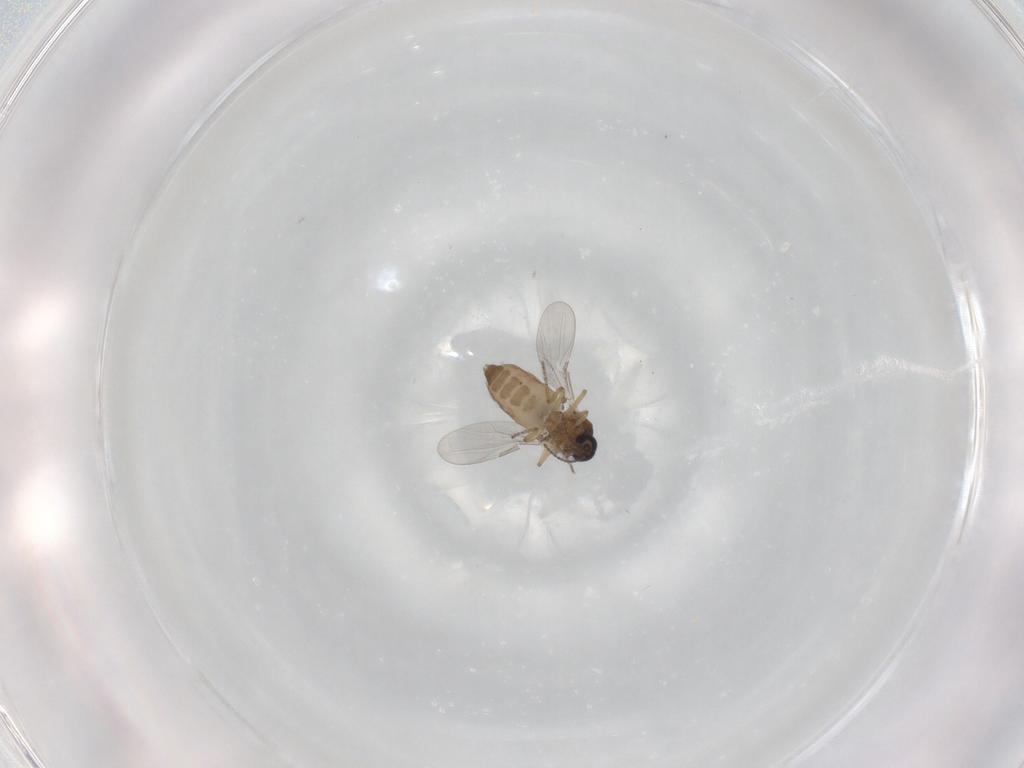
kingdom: Animalia
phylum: Arthropoda
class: Insecta
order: Diptera
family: Ceratopogonidae
